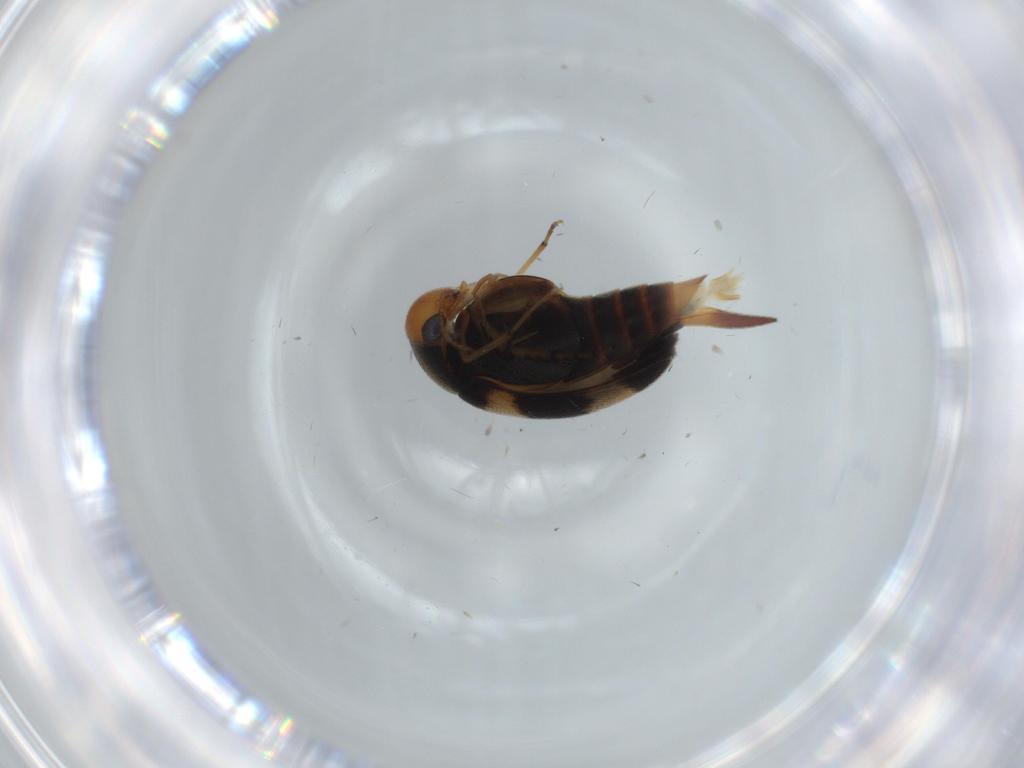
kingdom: Animalia
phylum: Arthropoda
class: Insecta
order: Coleoptera
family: Mordellidae
